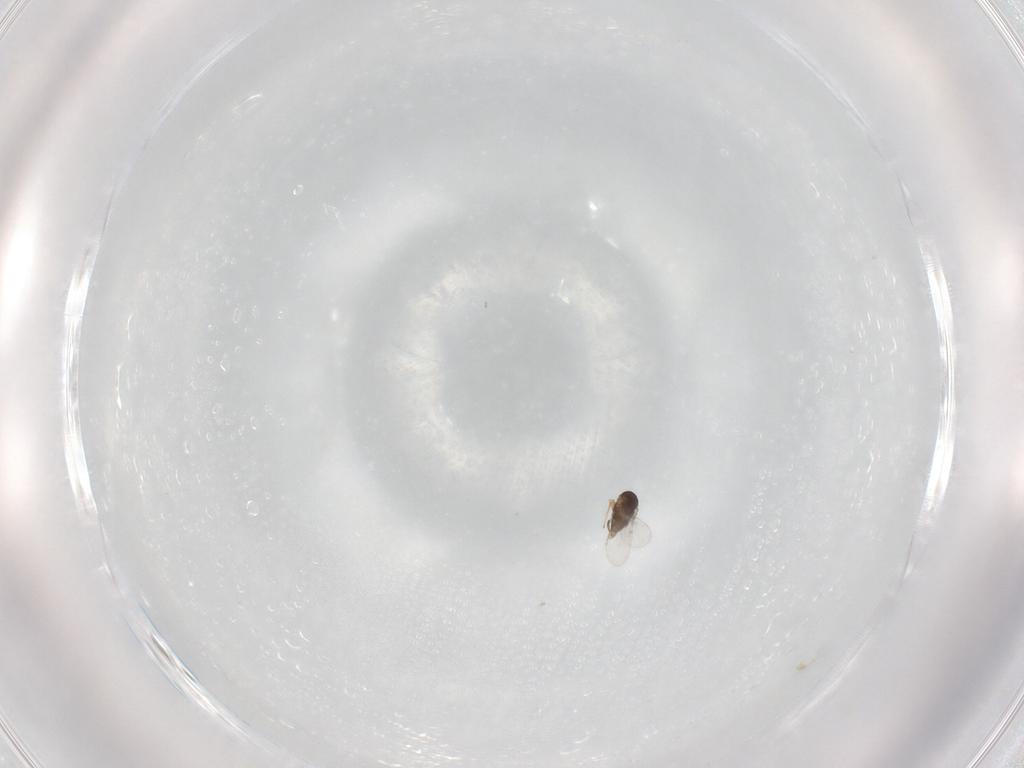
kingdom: Animalia
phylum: Arthropoda
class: Insecta
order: Hymenoptera
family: Encyrtidae
